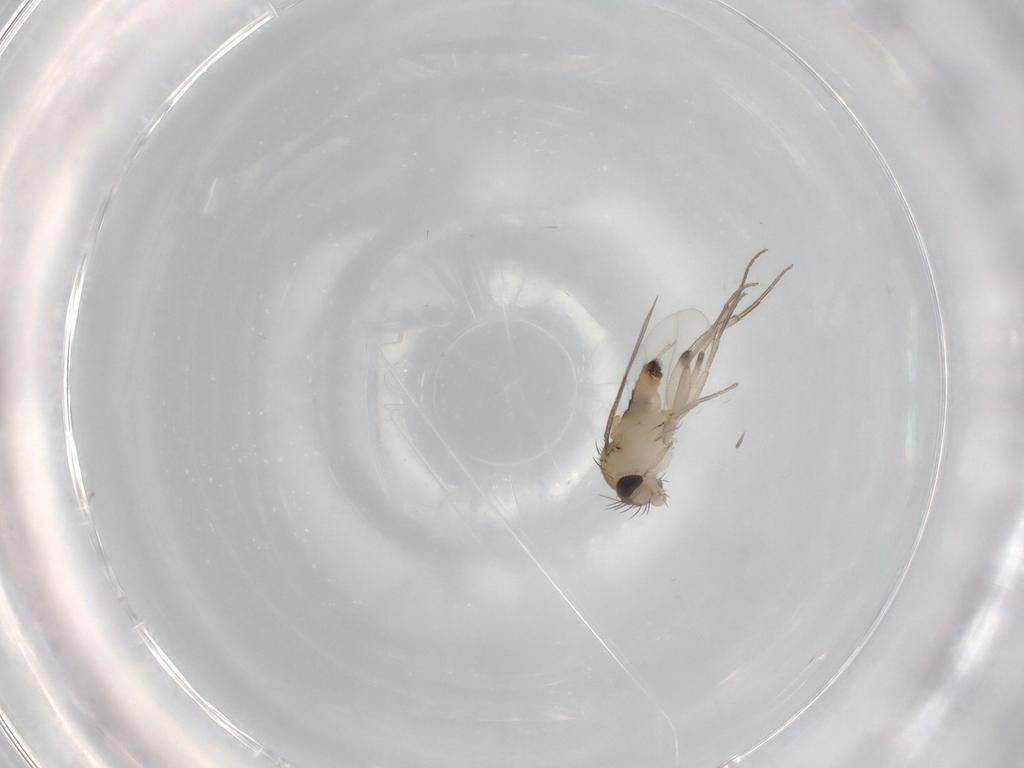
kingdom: Animalia
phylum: Arthropoda
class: Insecta
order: Diptera
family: Phoridae
